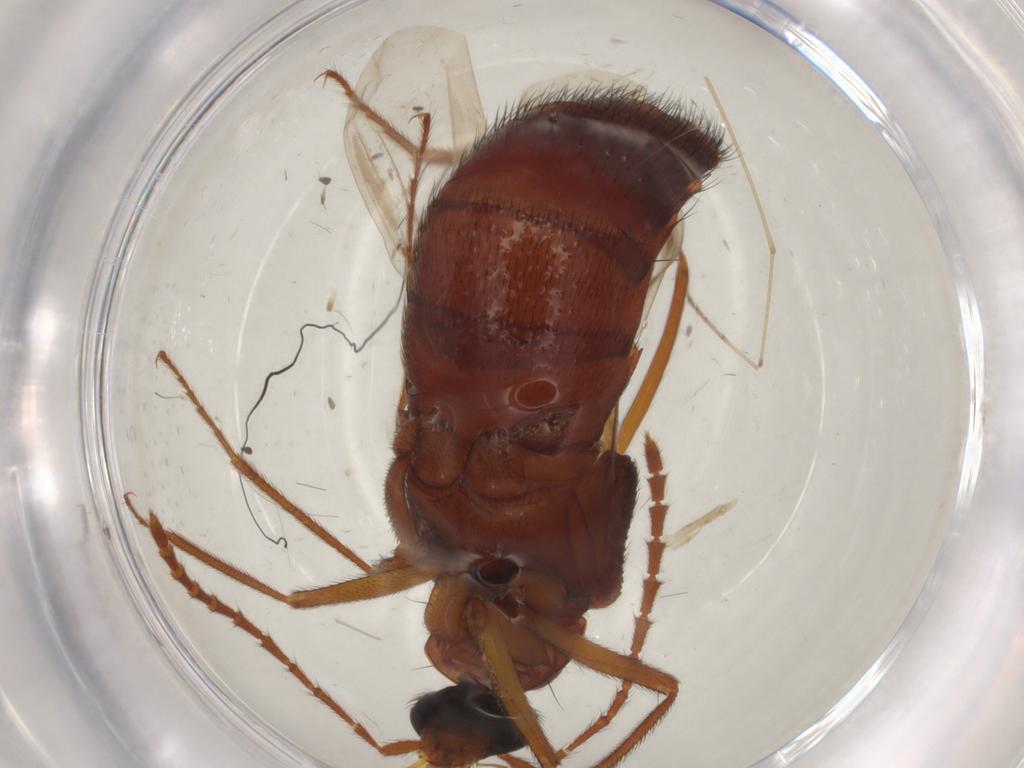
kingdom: Animalia
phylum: Arthropoda
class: Insecta
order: Coleoptera
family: Staphylinidae
